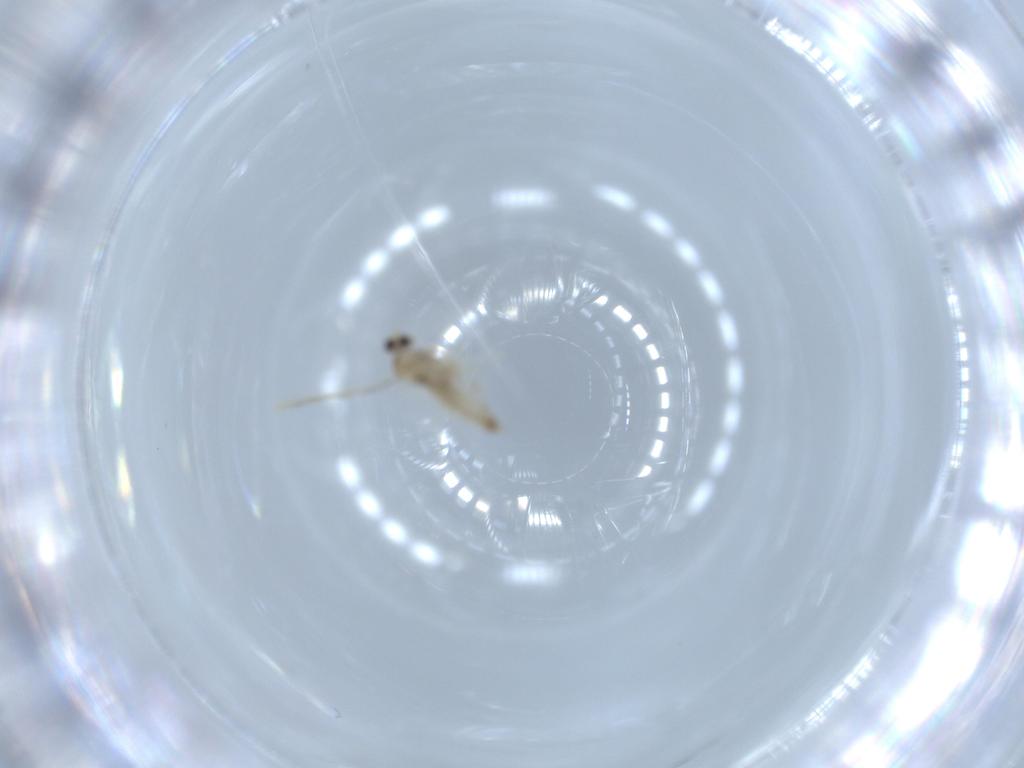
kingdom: Animalia
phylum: Arthropoda
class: Insecta
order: Diptera
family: Cecidomyiidae
